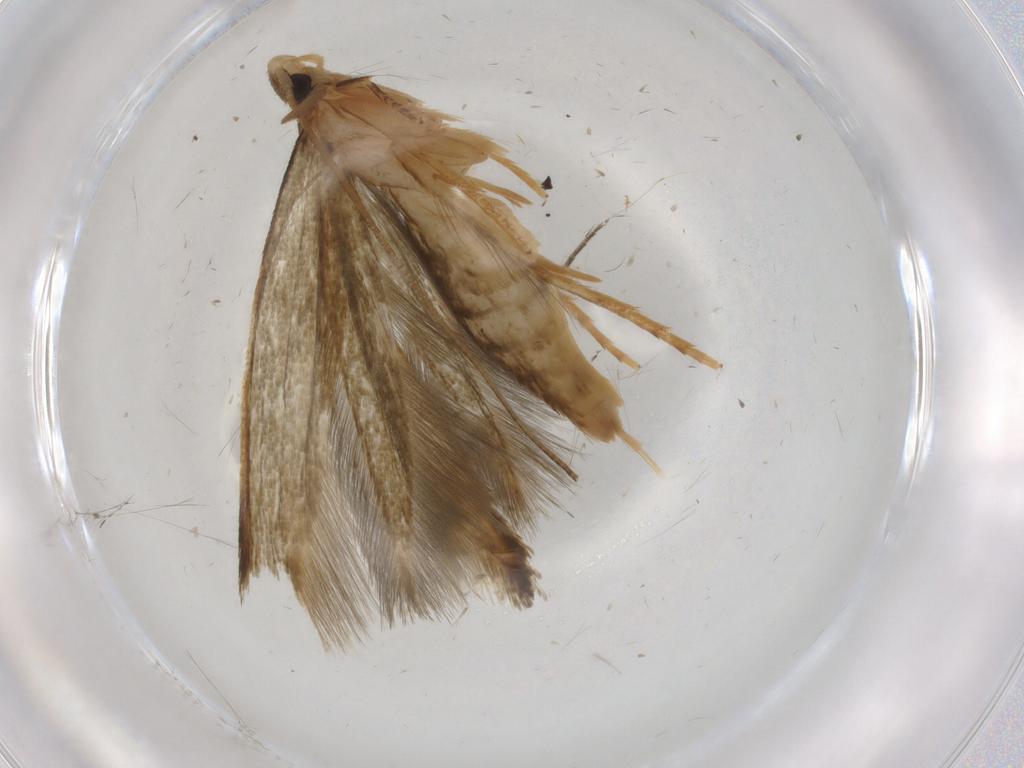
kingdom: Animalia
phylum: Arthropoda
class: Insecta
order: Lepidoptera
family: Tineidae
